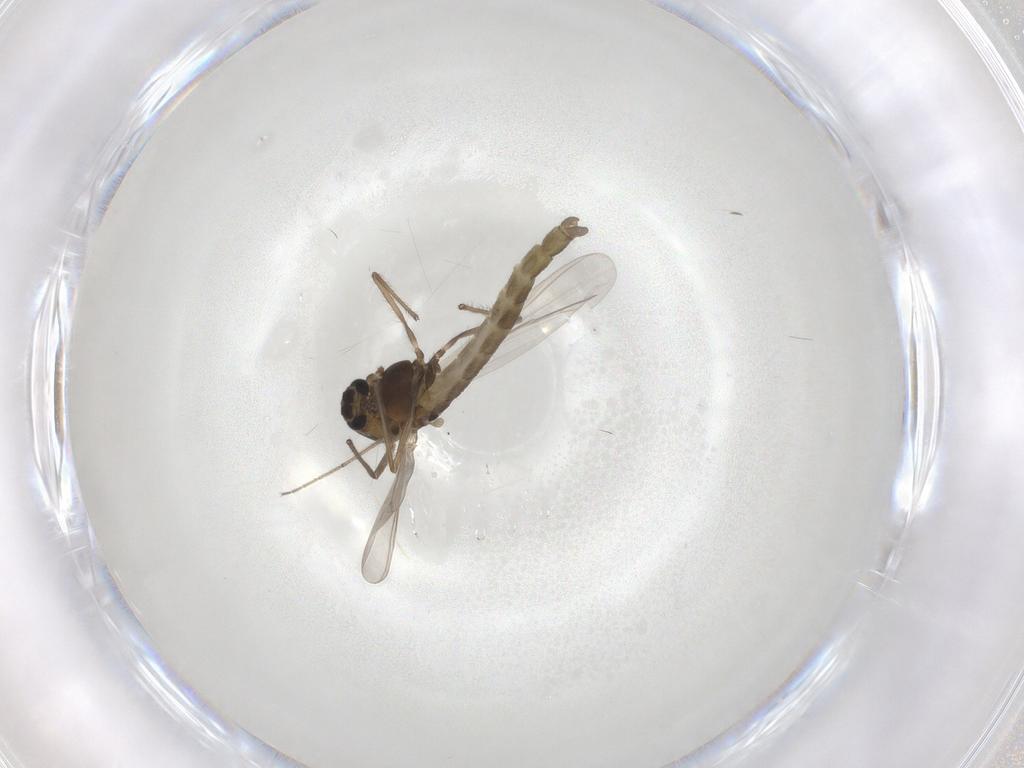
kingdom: Animalia
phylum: Arthropoda
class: Insecta
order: Diptera
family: Chironomidae
